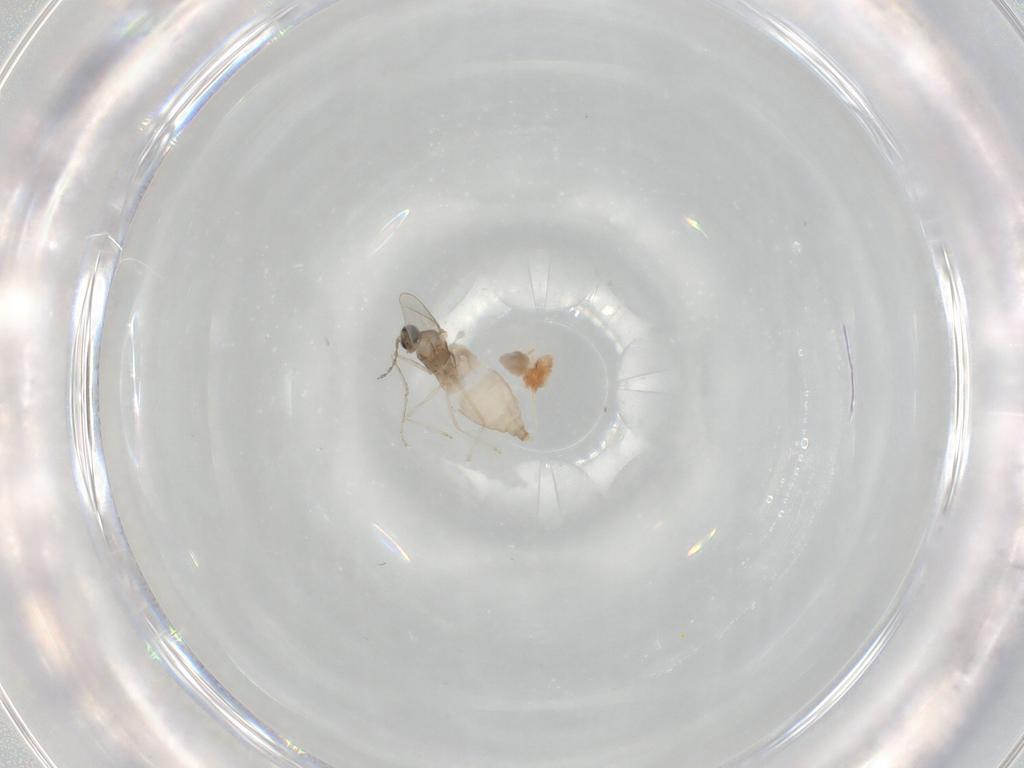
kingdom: Animalia
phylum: Arthropoda
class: Insecta
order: Diptera
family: Cecidomyiidae
